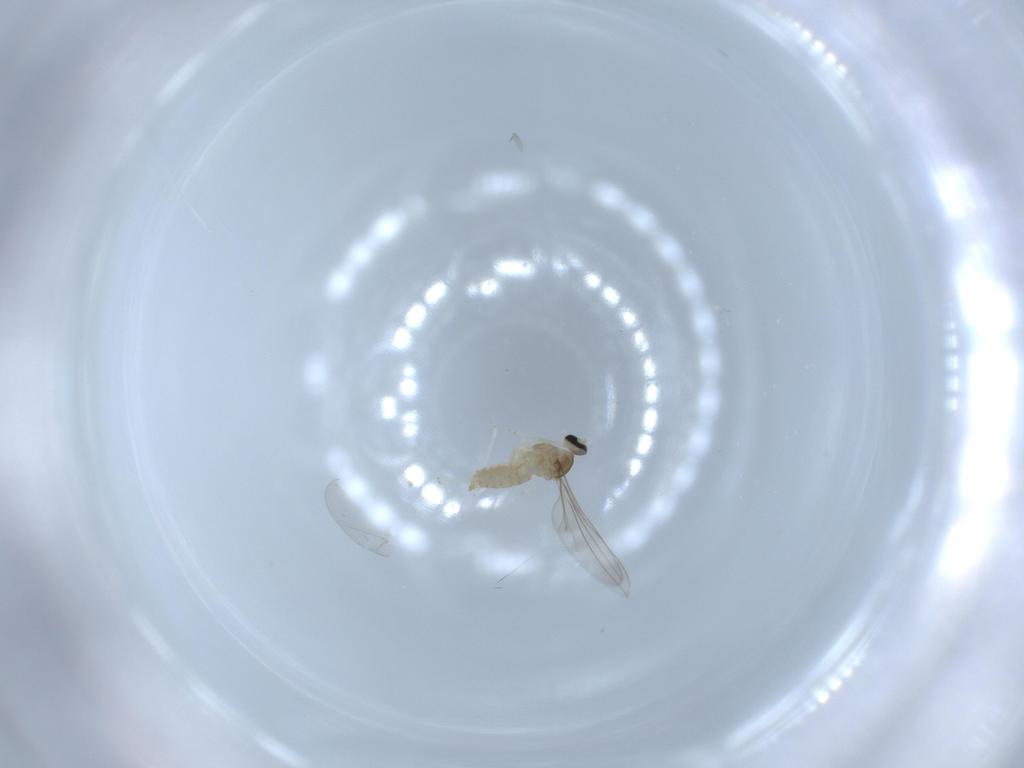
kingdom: Animalia
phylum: Arthropoda
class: Insecta
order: Diptera
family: Cecidomyiidae
